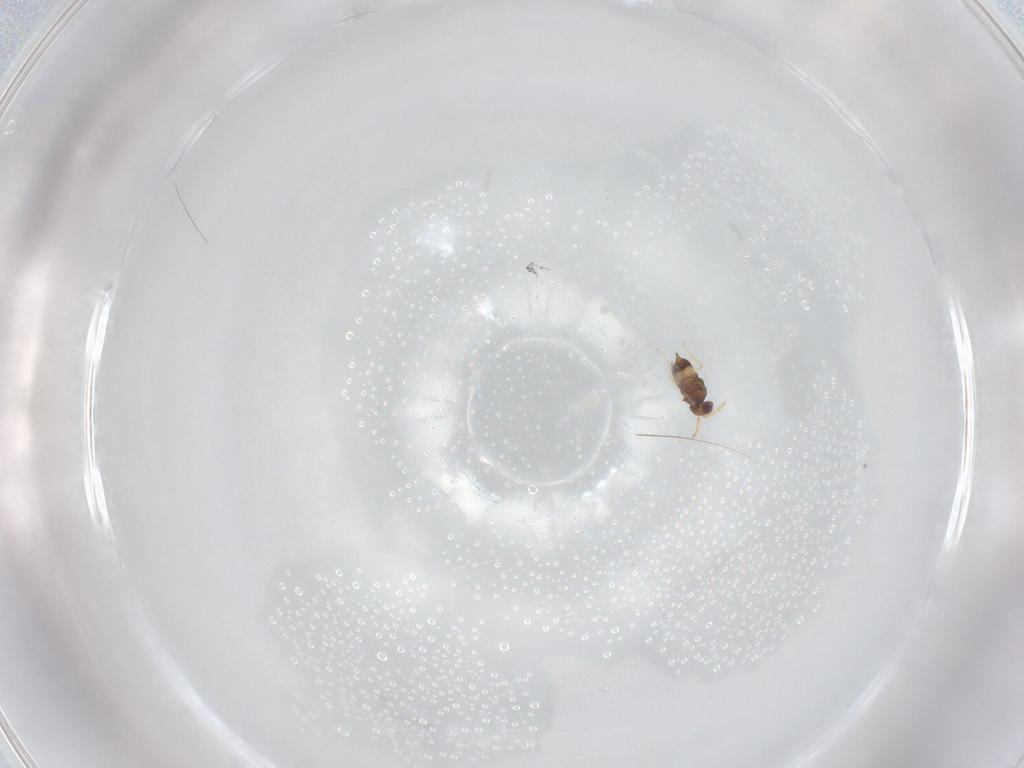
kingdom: Animalia
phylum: Arthropoda
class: Insecta
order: Hymenoptera
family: Aphelinidae
